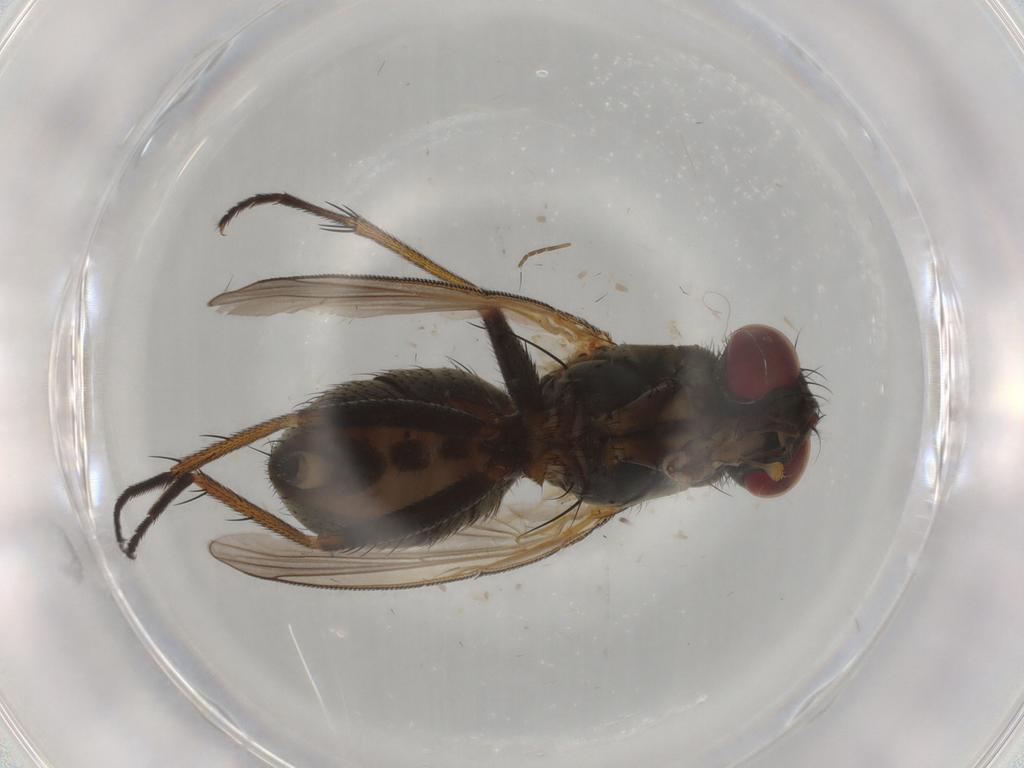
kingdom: Animalia
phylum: Arthropoda
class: Insecta
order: Diptera
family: Muscidae
